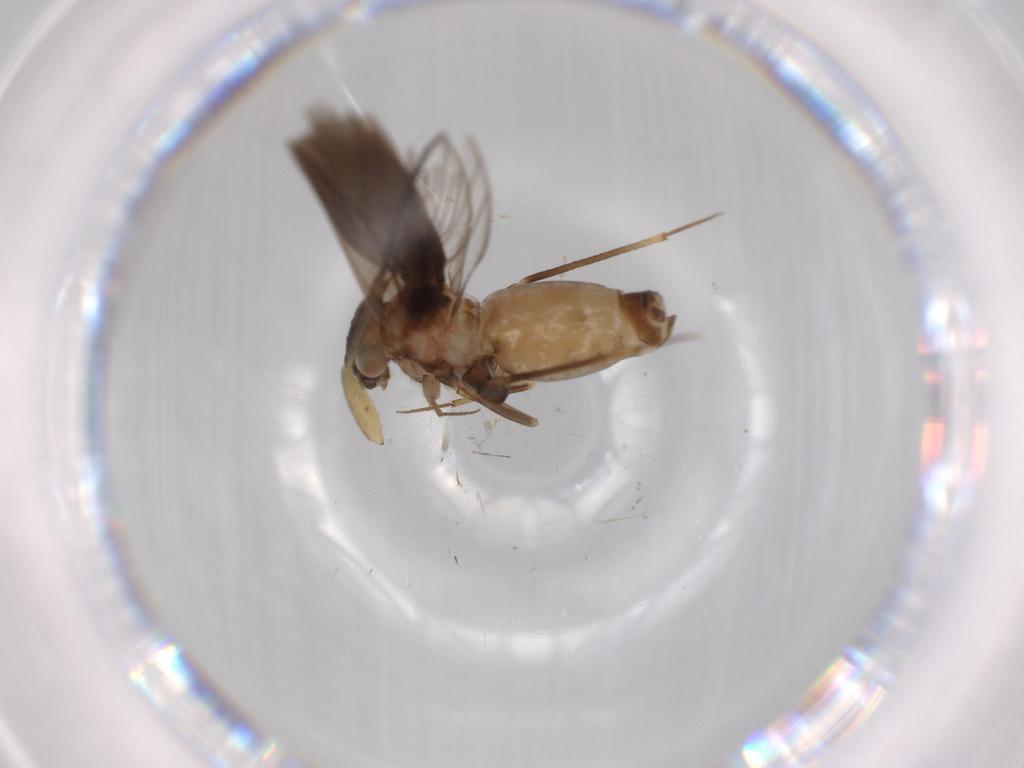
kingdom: Animalia
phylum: Arthropoda
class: Insecta
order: Psocodea
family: Lepidopsocidae
